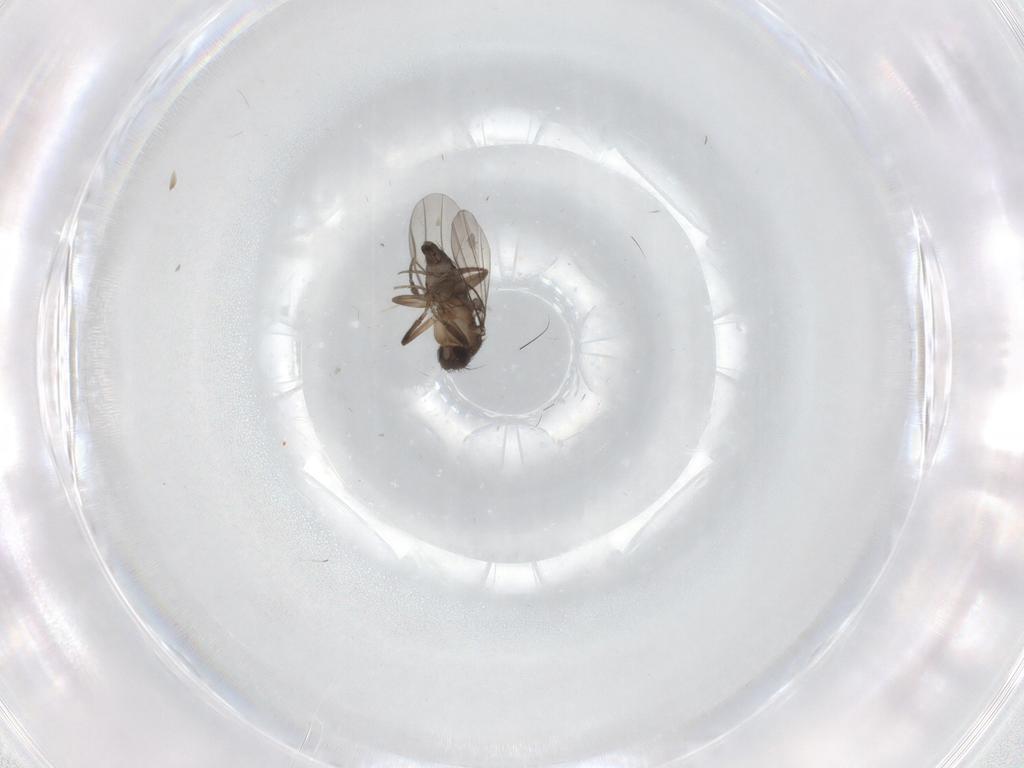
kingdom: Animalia
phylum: Arthropoda
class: Insecta
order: Diptera
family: Phoridae
